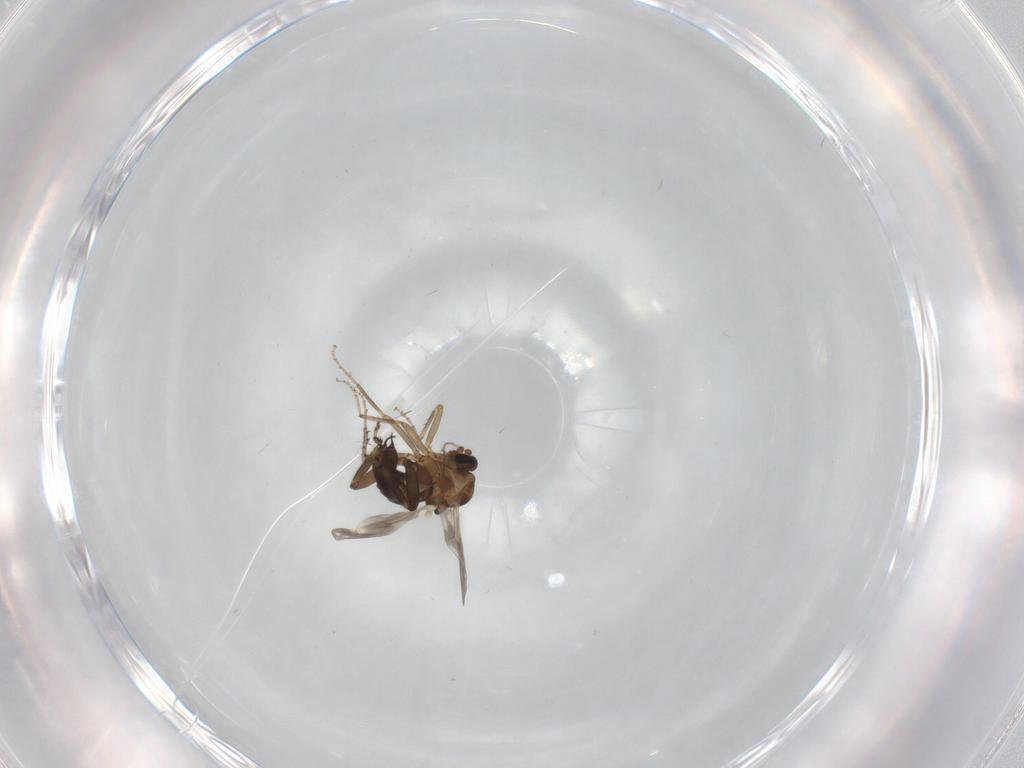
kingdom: Animalia
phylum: Arthropoda
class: Insecta
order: Diptera
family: Ceratopogonidae
